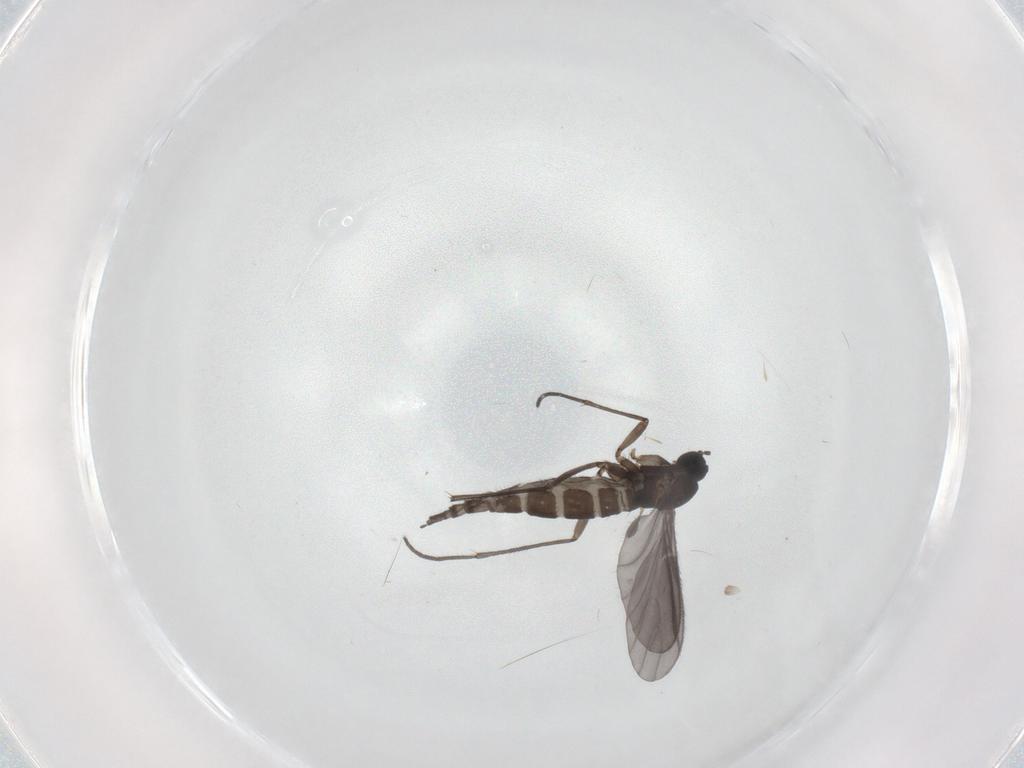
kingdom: Animalia
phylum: Arthropoda
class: Insecta
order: Diptera
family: Sciaridae
